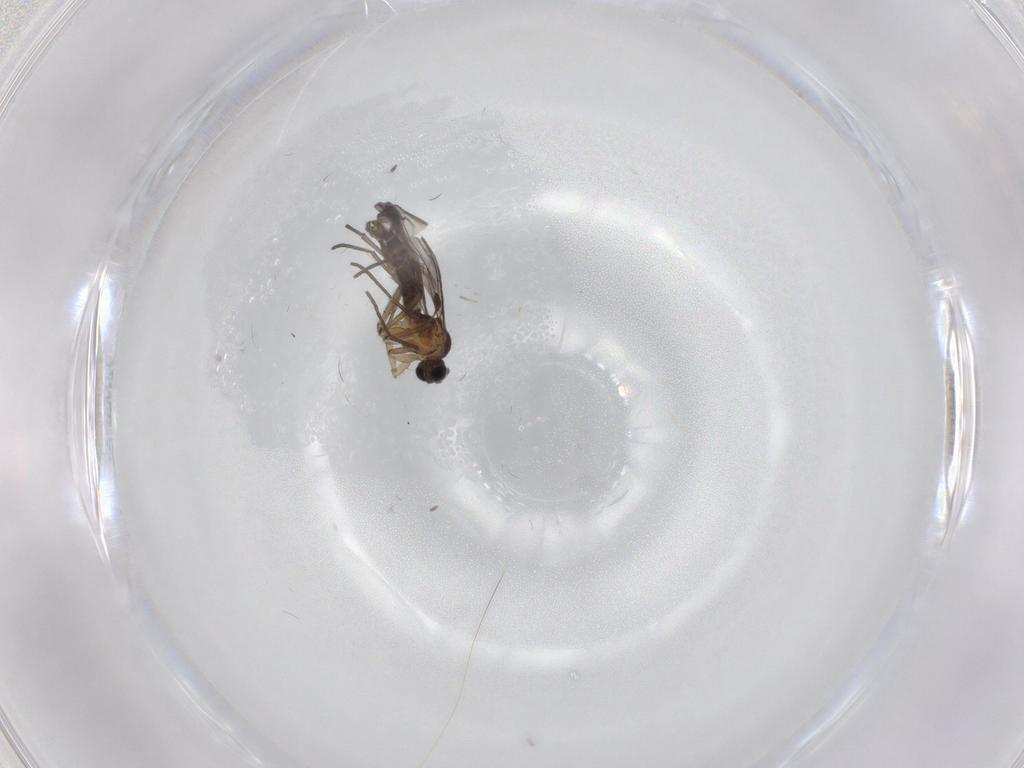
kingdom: Animalia
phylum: Arthropoda
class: Insecta
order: Diptera
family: Sciaridae
